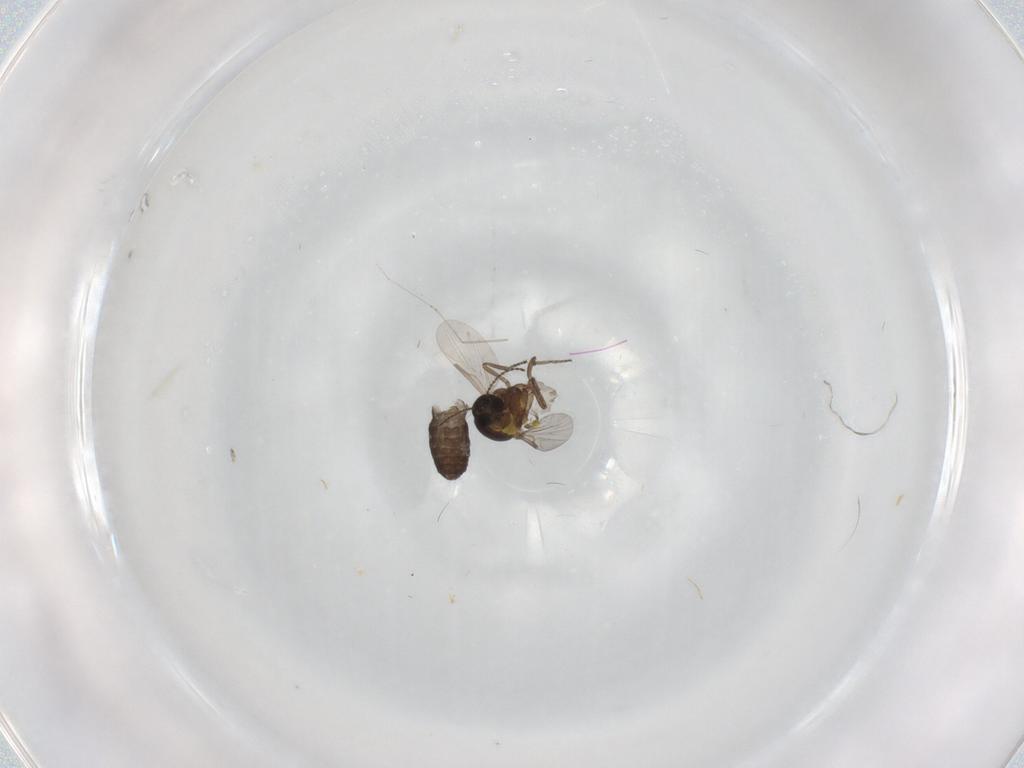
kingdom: Animalia
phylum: Arthropoda
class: Insecta
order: Diptera
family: Ceratopogonidae
